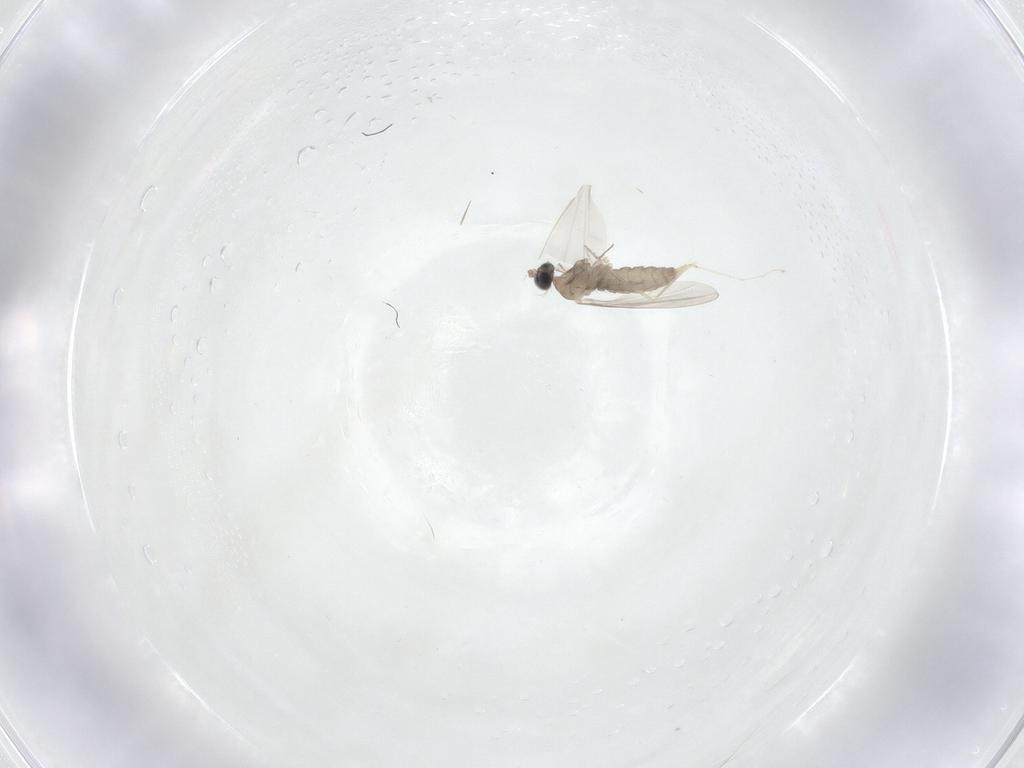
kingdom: Animalia
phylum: Arthropoda
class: Insecta
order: Diptera
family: Cecidomyiidae
